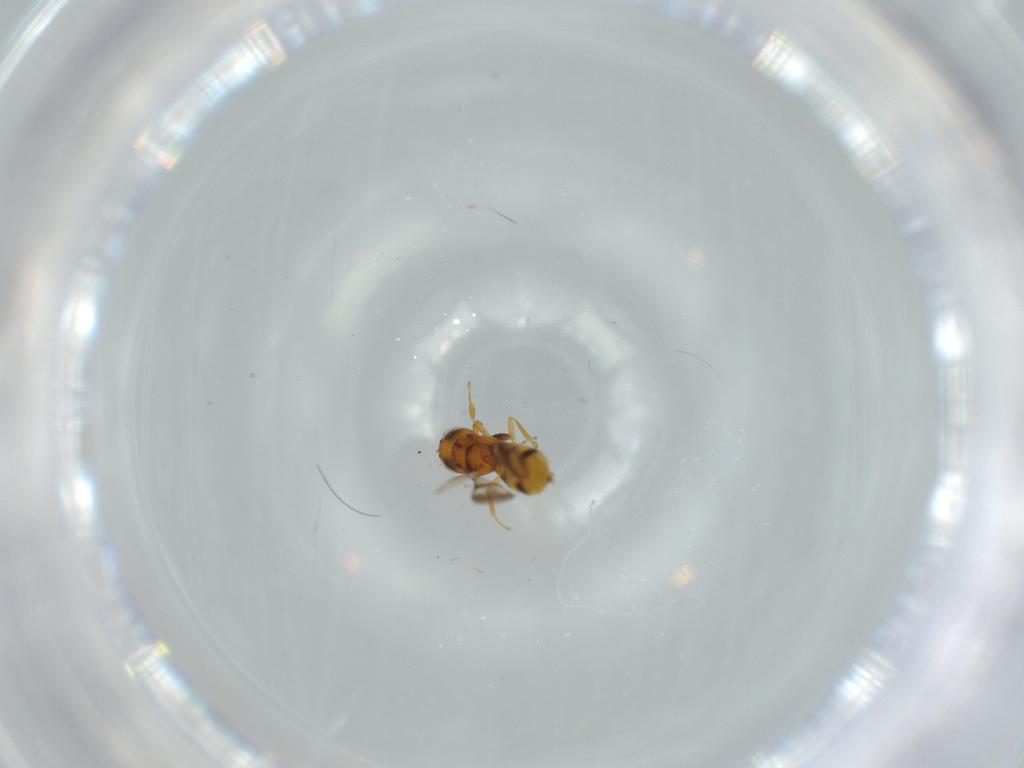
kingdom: Animalia
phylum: Arthropoda
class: Insecta
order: Hymenoptera
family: Scelionidae
